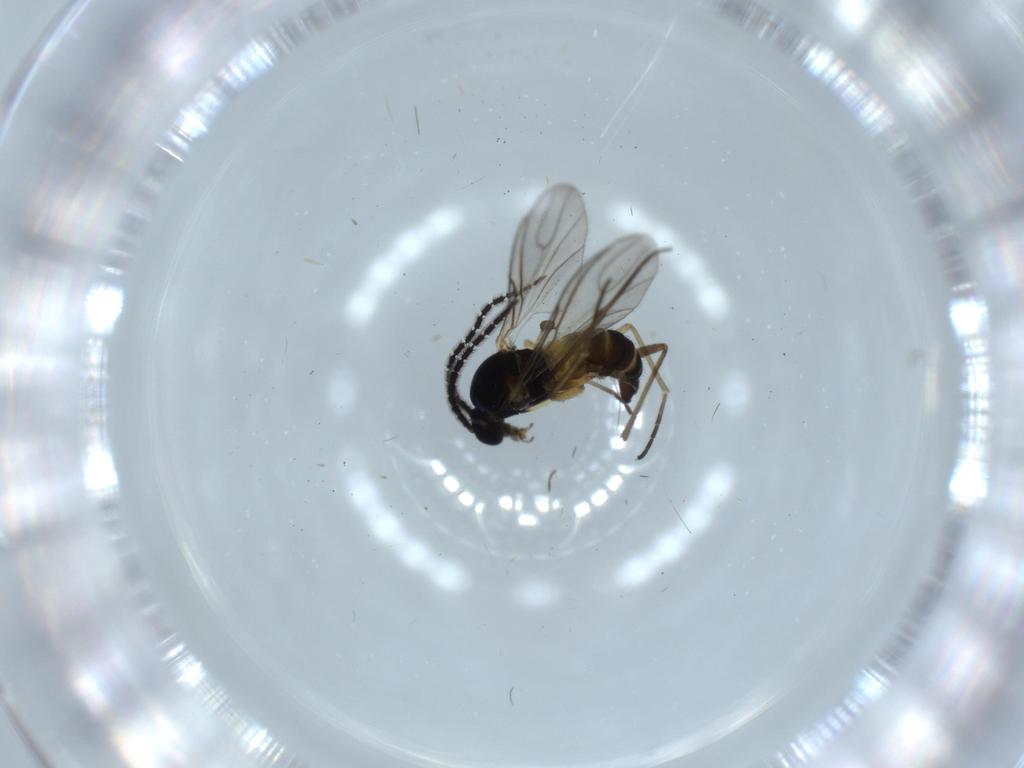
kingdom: Animalia
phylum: Arthropoda
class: Insecta
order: Diptera
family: Sciaridae
